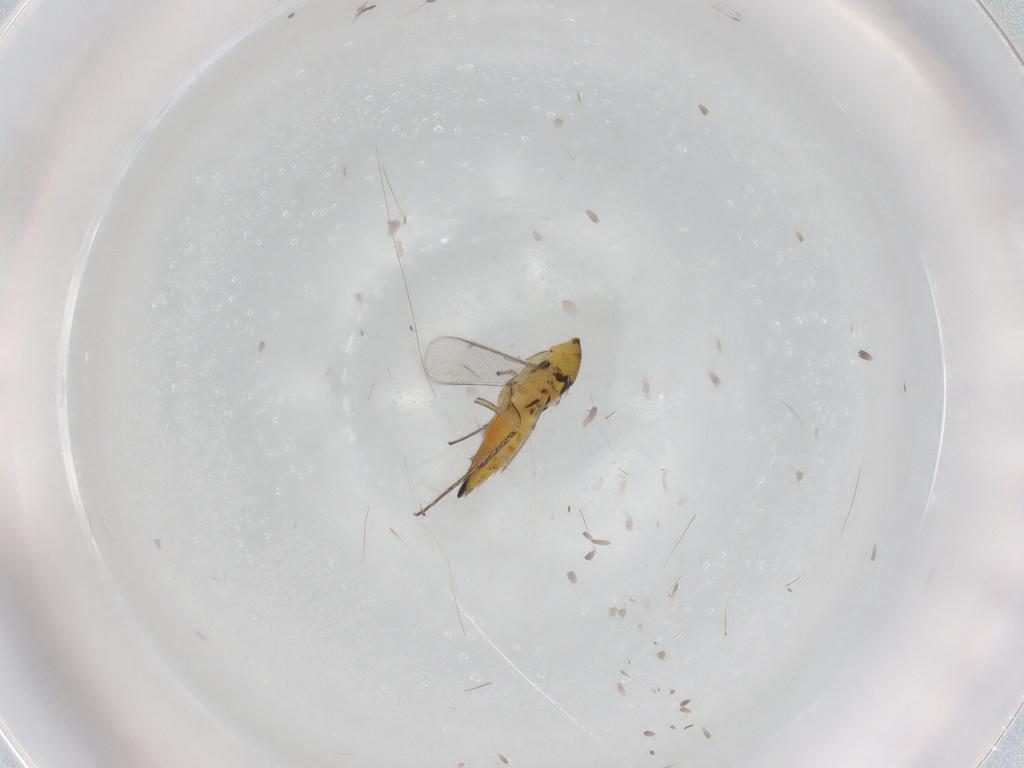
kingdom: Animalia
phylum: Arthropoda
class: Insecta
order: Hemiptera
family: Psyllidae
